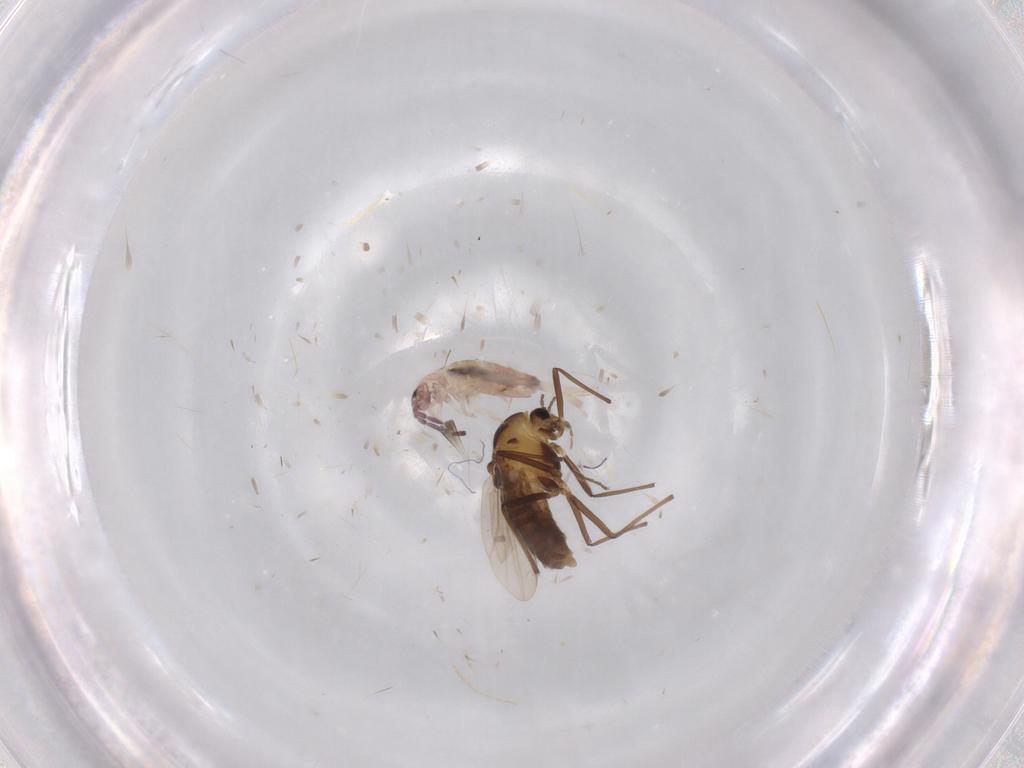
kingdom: Animalia
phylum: Arthropoda
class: Insecta
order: Diptera
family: Chironomidae
